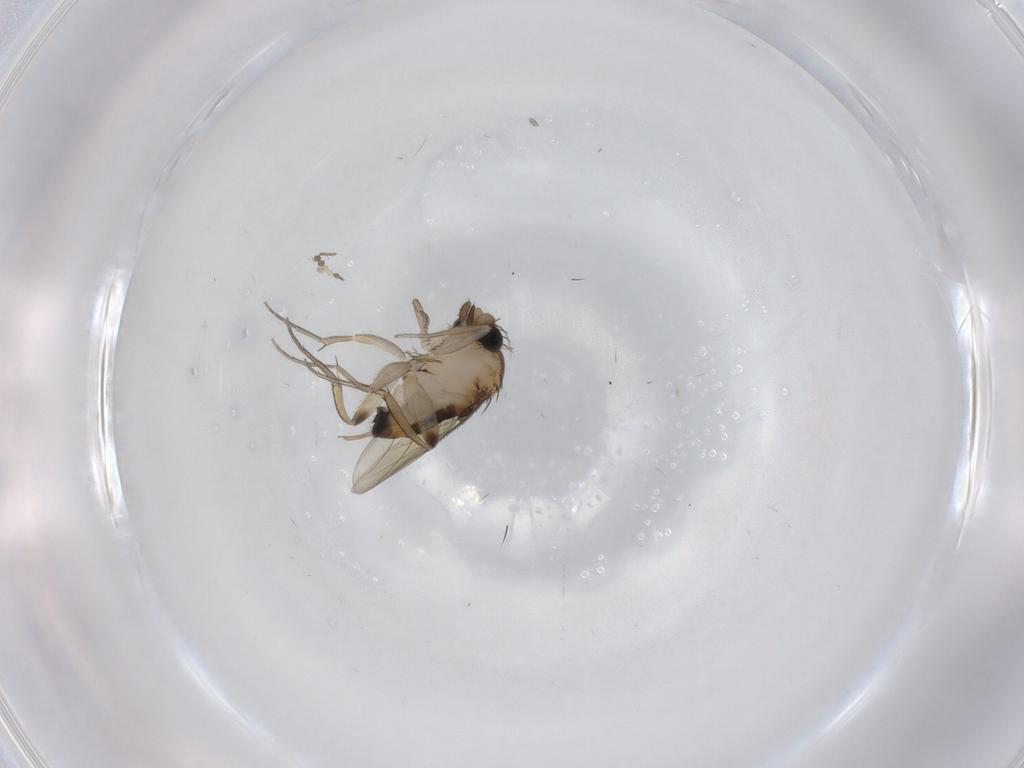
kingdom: Animalia
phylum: Arthropoda
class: Insecta
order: Diptera
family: Phoridae
